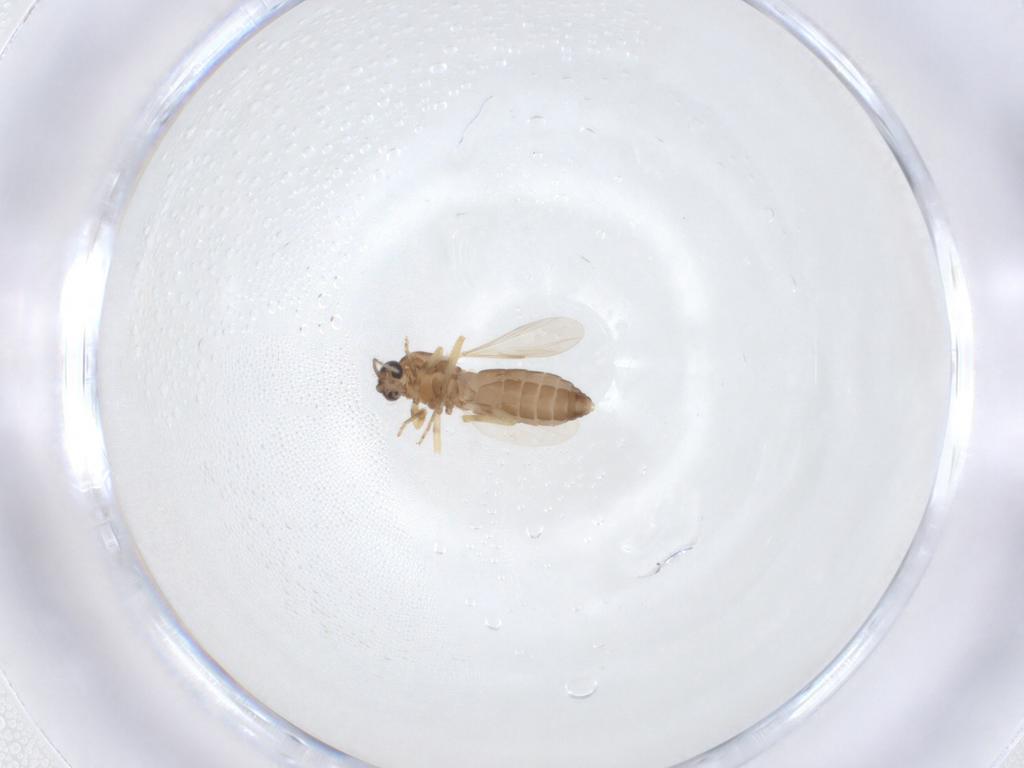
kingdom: Animalia
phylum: Arthropoda
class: Insecta
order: Diptera
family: Ceratopogonidae
